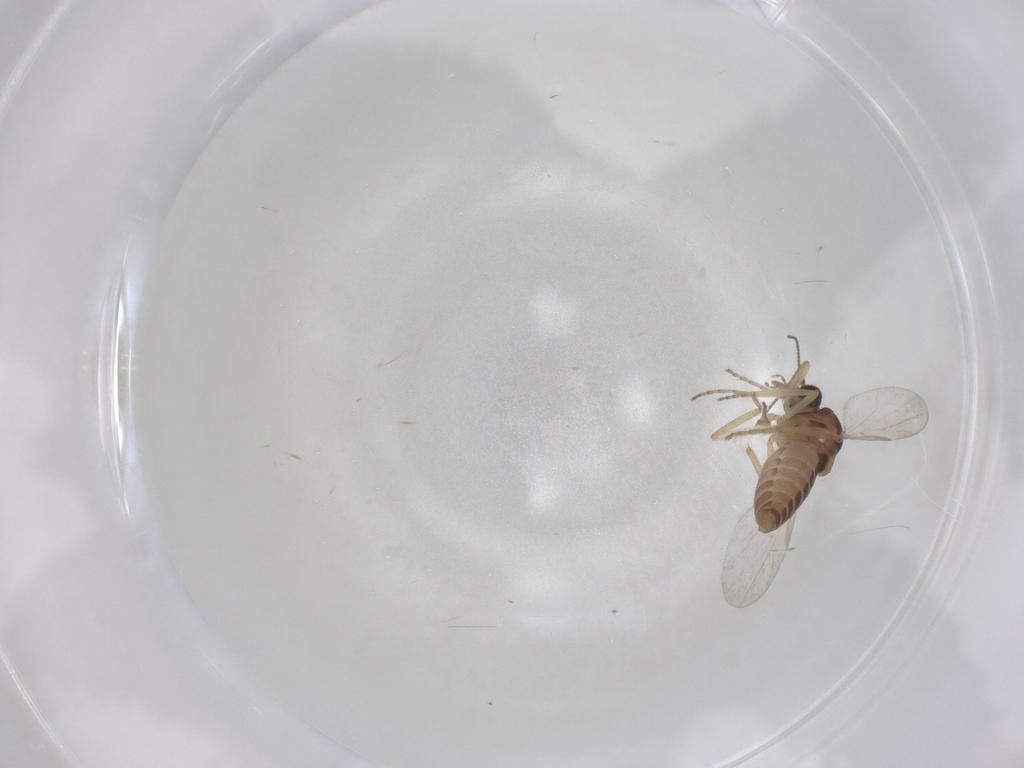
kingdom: Animalia
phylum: Arthropoda
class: Insecta
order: Diptera
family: Ceratopogonidae
